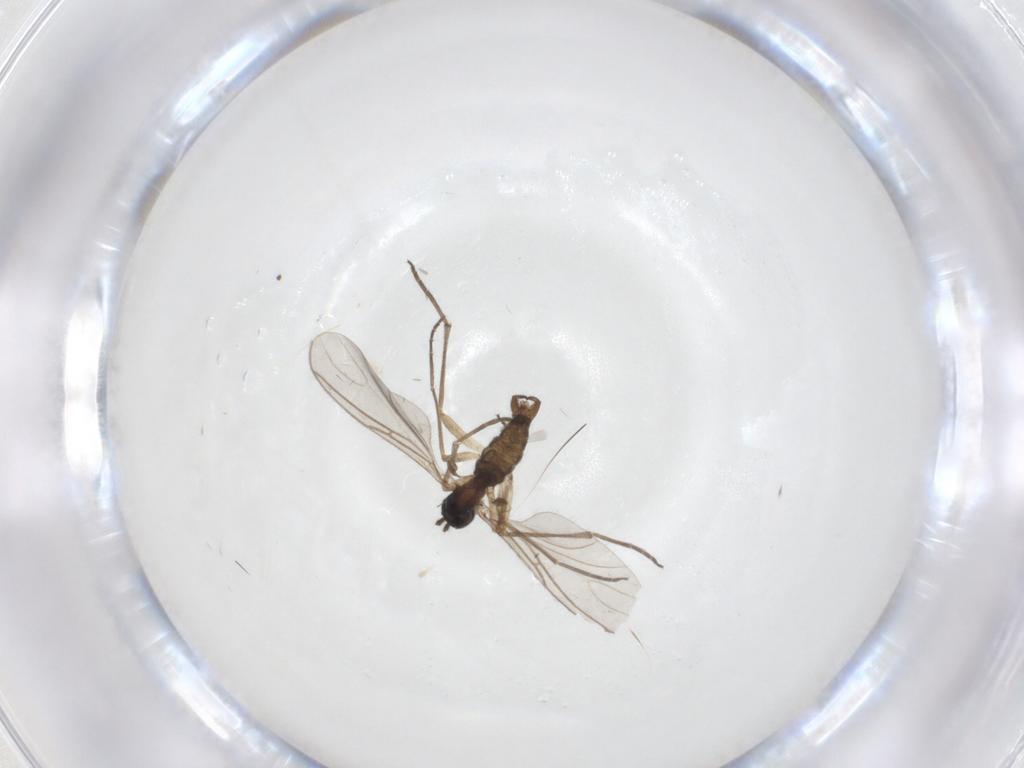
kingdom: Animalia
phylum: Arthropoda
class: Insecta
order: Diptera
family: Sciaridae
